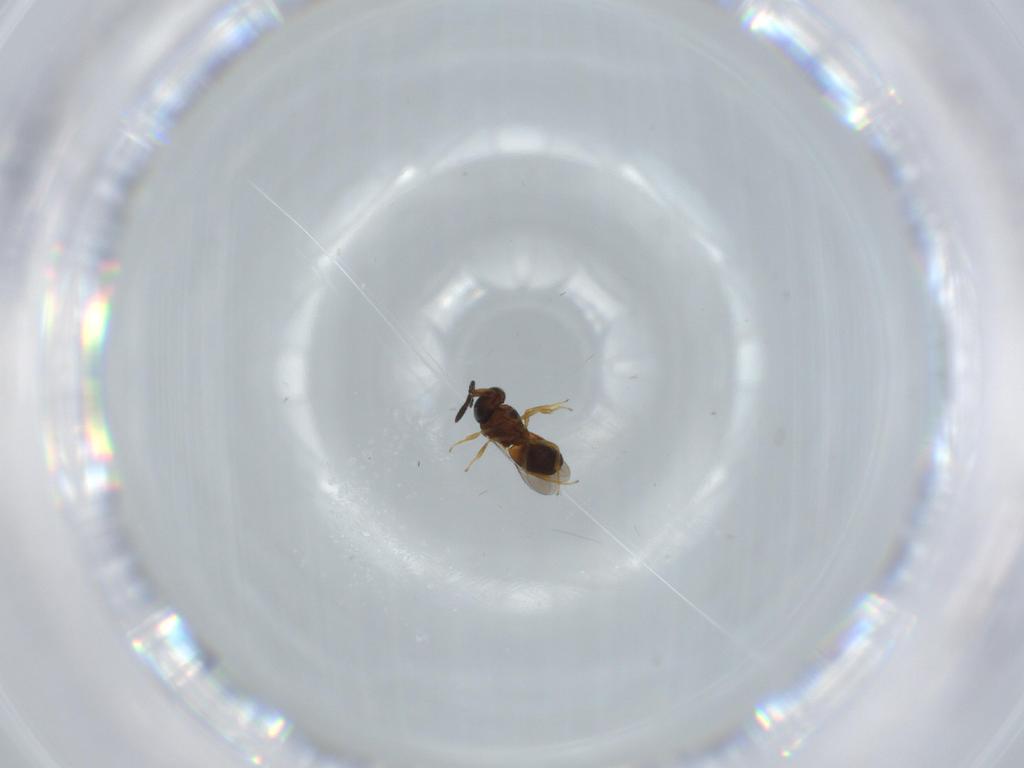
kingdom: Animalia
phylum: Arthropoda
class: Insecta
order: Hymenoptera
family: Scelionidae
